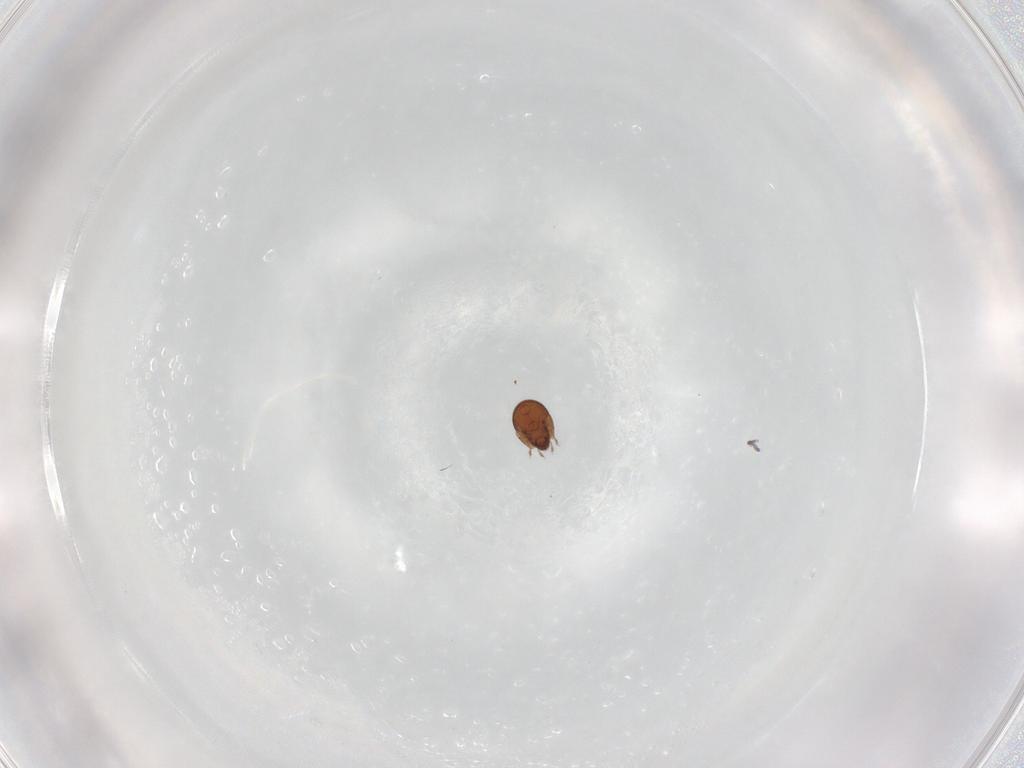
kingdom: Animalia
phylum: Arthropoda
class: Arachnida
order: Sarcoptiformes
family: Tegoribatidae
